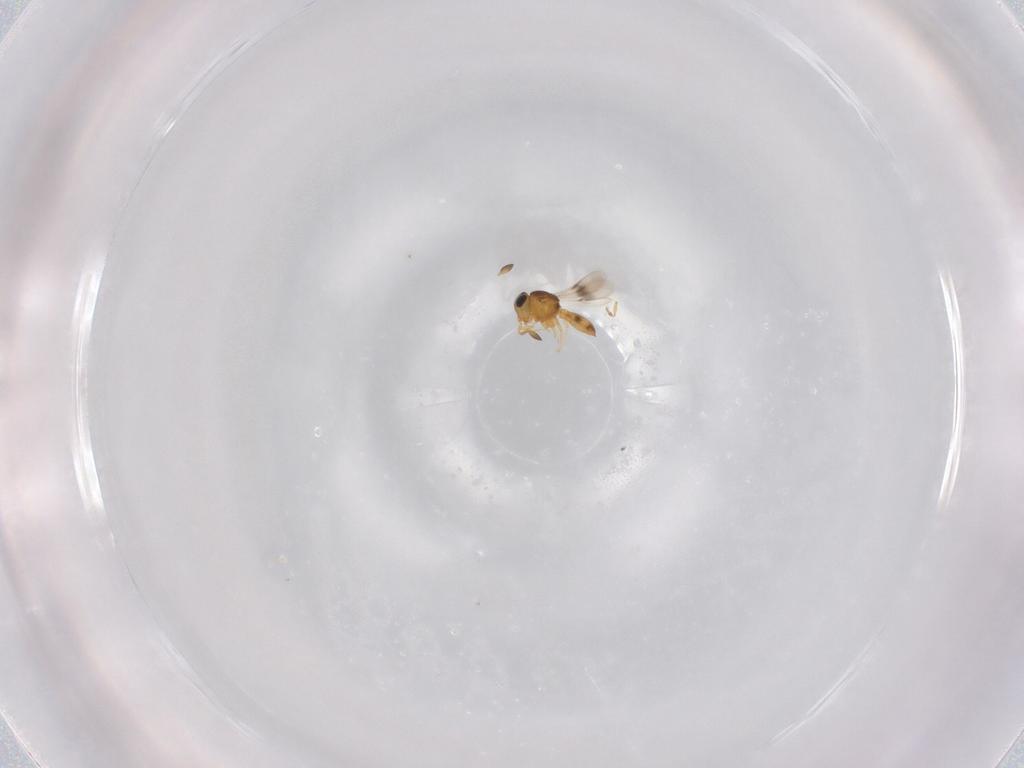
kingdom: Animalia
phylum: Arthropoda
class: Insecta
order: Hymenoptera
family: Scelionidae
